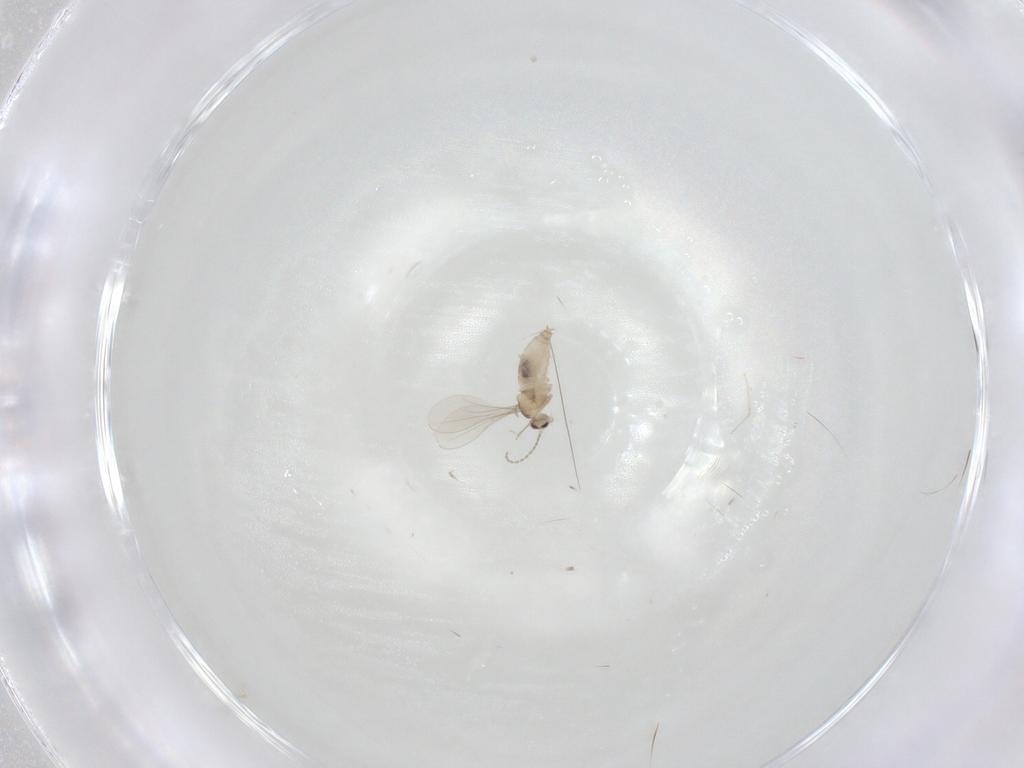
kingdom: Animalia
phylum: Arthropoda
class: Insecta
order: Diptera
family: Cecidomyiidae
